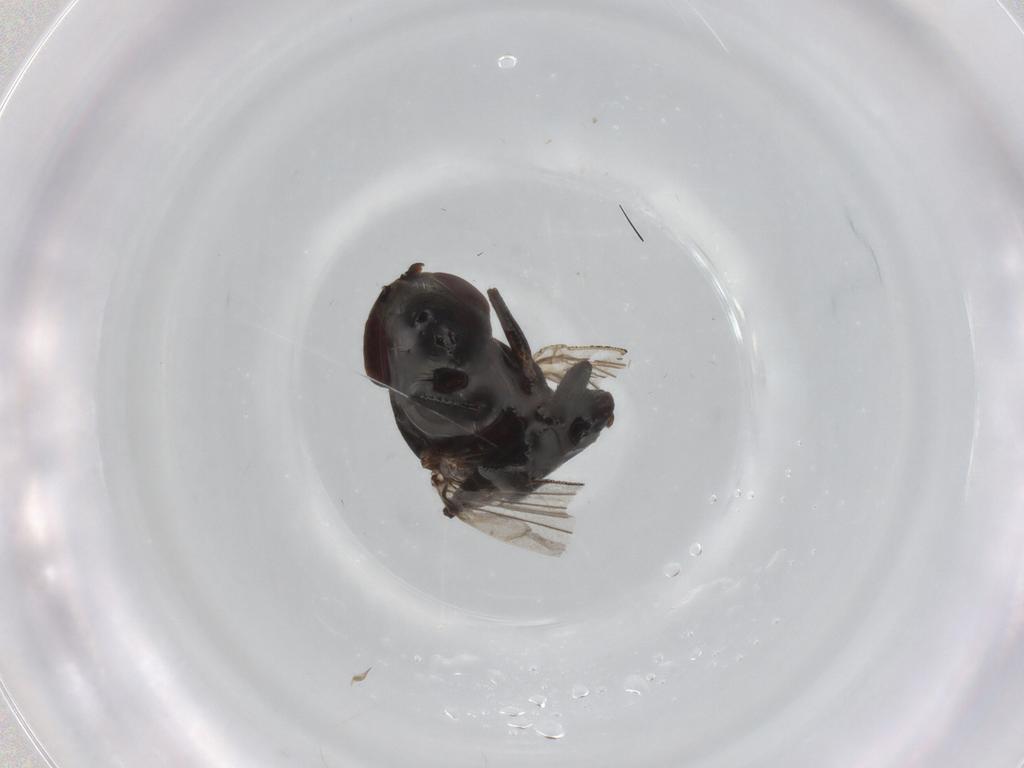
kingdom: Animalia
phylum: Arthropoda
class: Insecta
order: Diptera
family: Ephydridae
